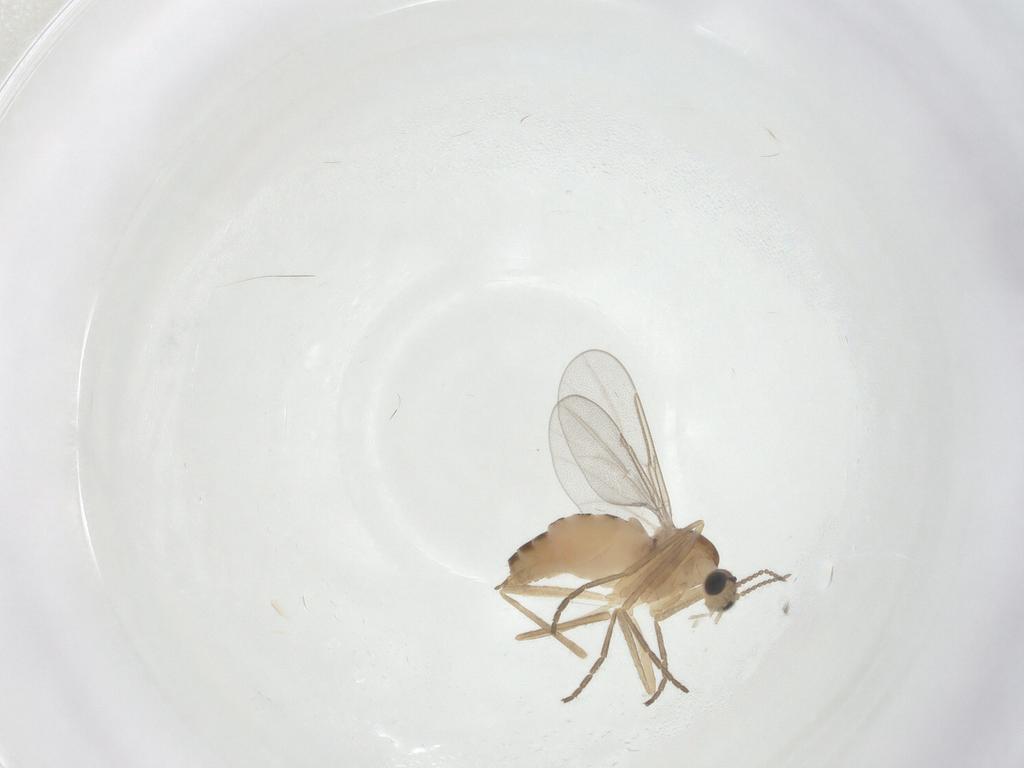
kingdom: Animalia
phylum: Arthropoda
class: Insecta
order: Diptera
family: Cecidomyiidae
